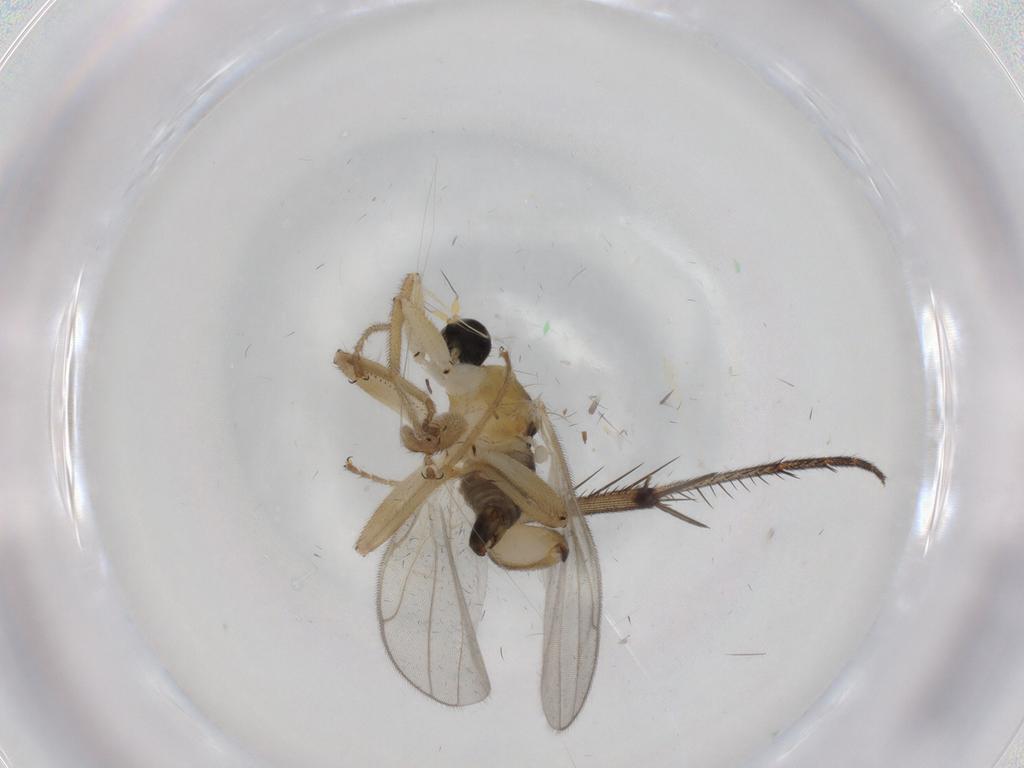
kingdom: Animalia
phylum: Arthropoda
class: Insecta
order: Diptera
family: Hybotidae
